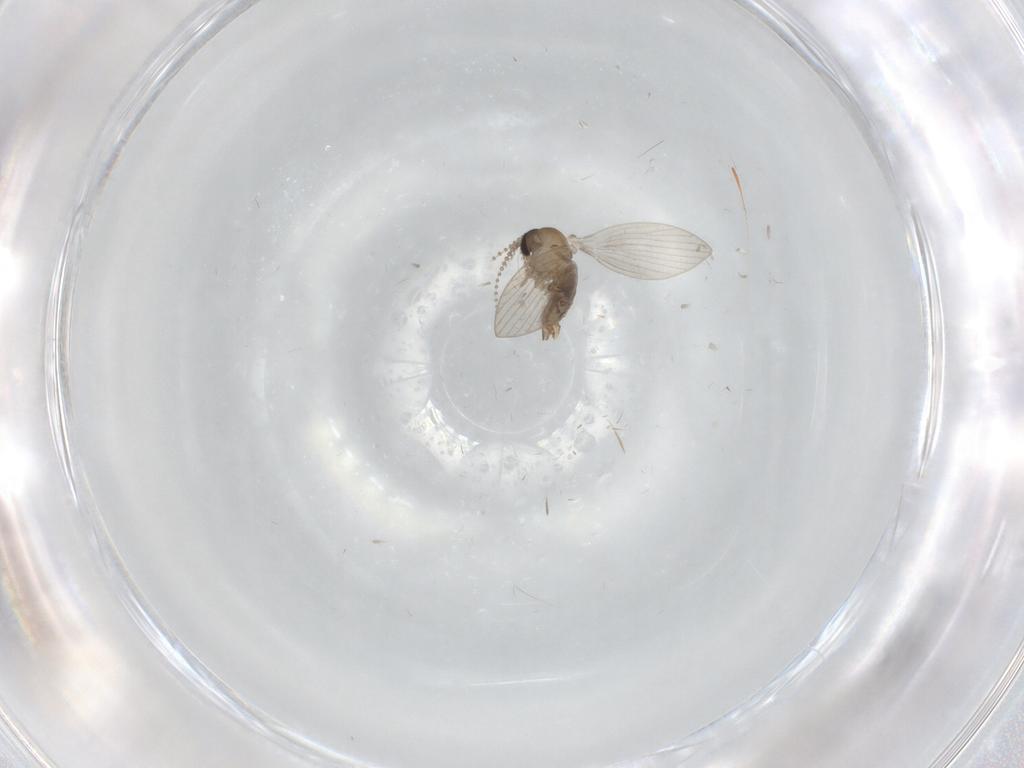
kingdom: Animalia
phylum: Arthropoda
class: Insecta
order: Diptera
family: Psychodidae
